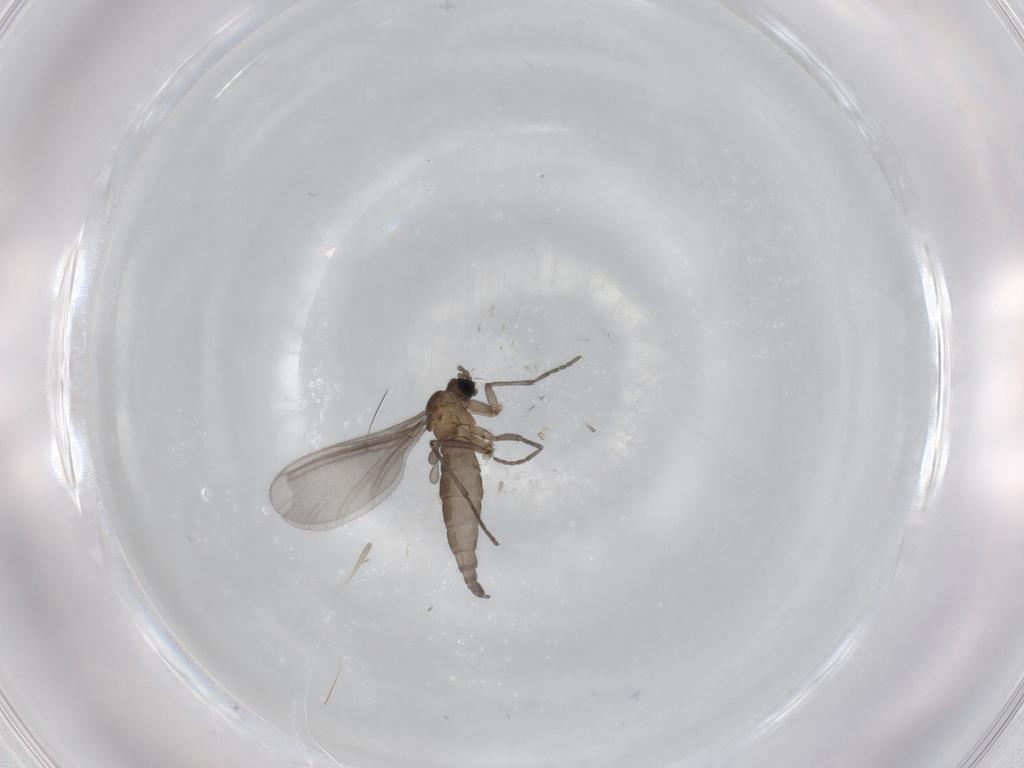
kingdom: Animalia
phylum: Arthropoda
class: Insecta
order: Diptera
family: Sciaridae
